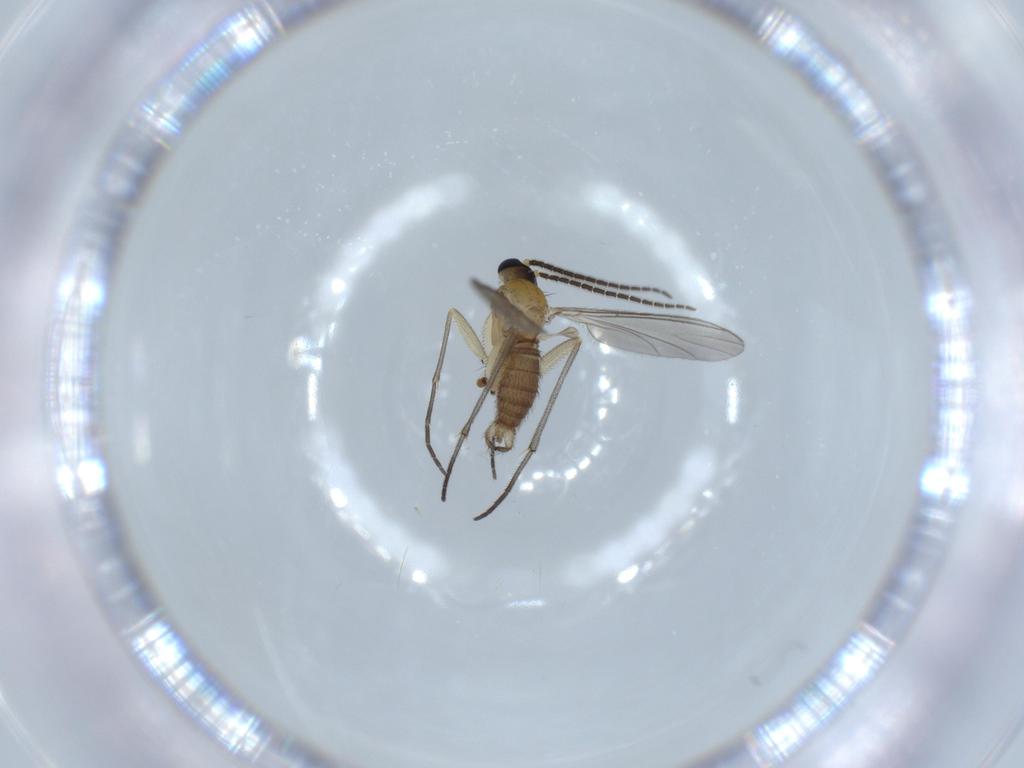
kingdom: Animalia
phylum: Arthropoda
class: Insecta
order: Diptera
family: Sciaridae
